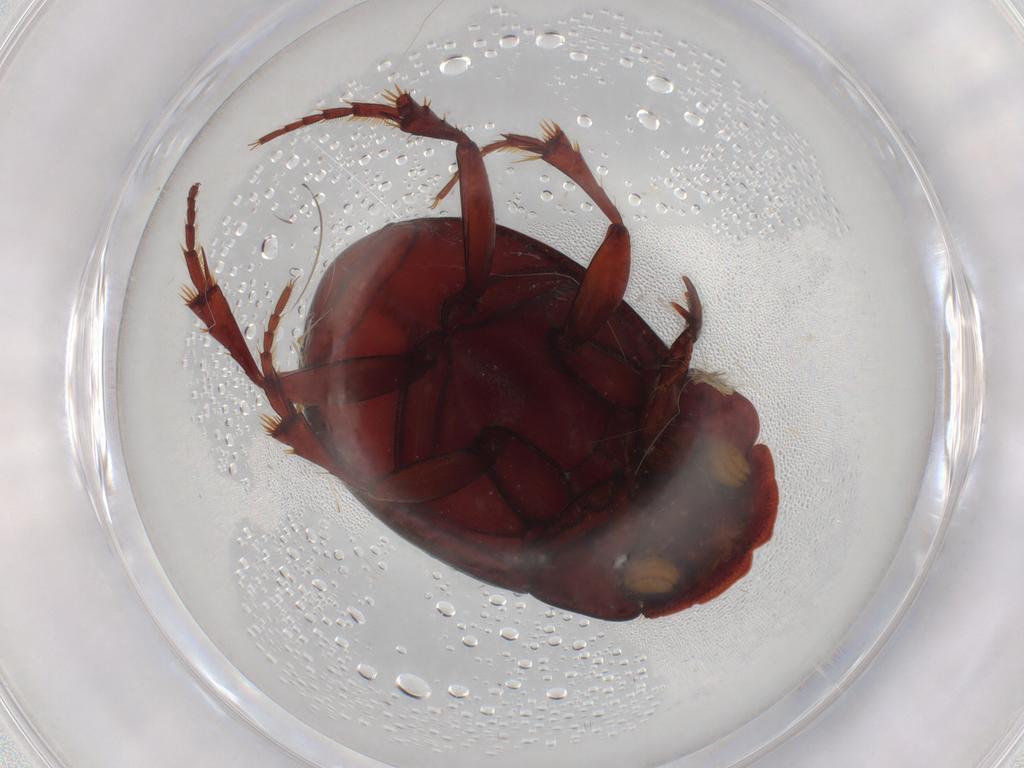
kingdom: Animalia
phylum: Arthropoda
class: Insecta
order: Coleoptera
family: Scarabaeidae
